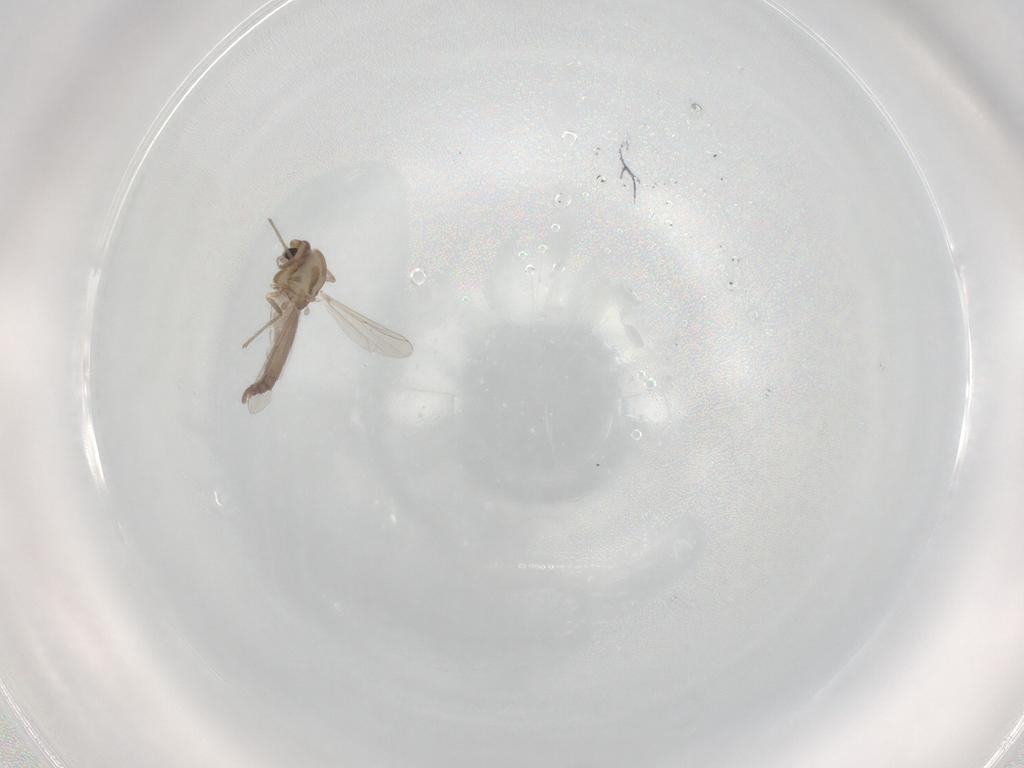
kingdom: Animalia
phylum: Arthropoda
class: Insecta
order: Diptera
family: Chironomidae
